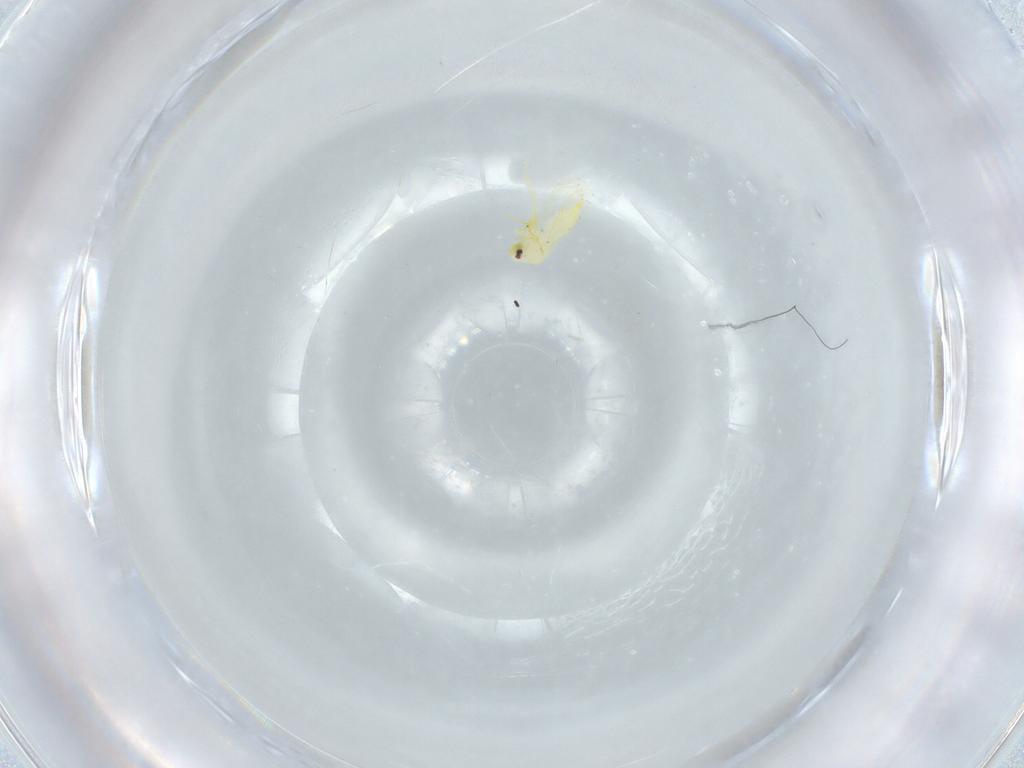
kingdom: Animalia
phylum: Arthropoda
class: Insecta
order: Hemiptera
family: Aleyrodidae
